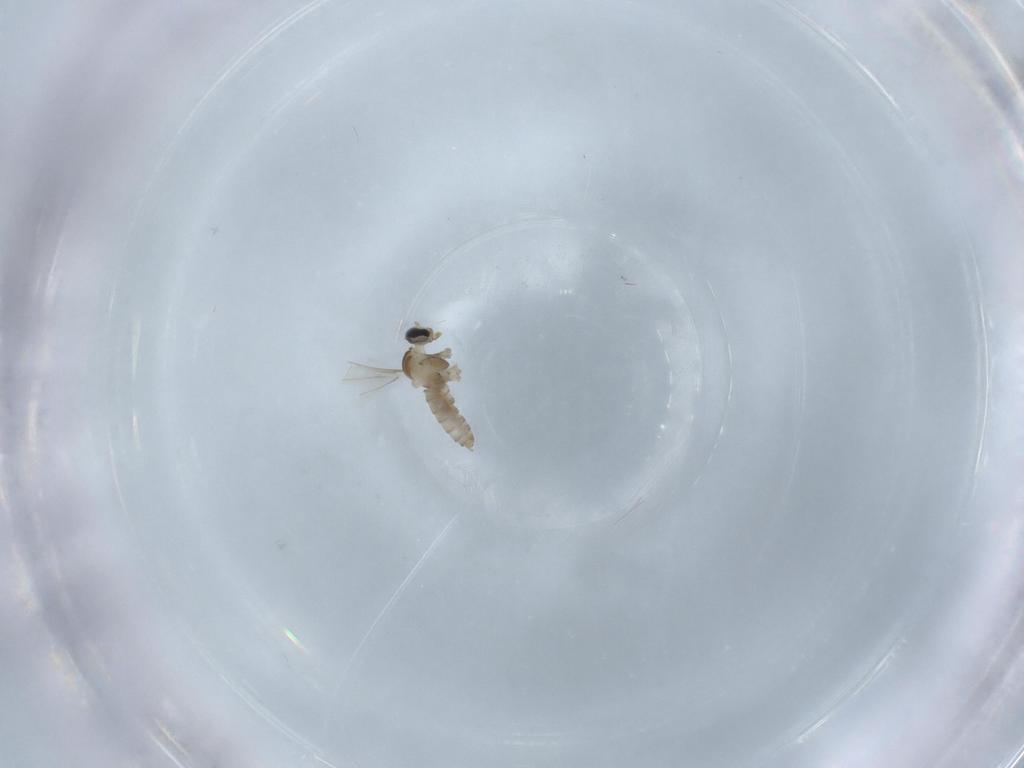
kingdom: Animalia
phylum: Arthropoda
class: Insecta
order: Diptera
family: Cecidomyiidae
